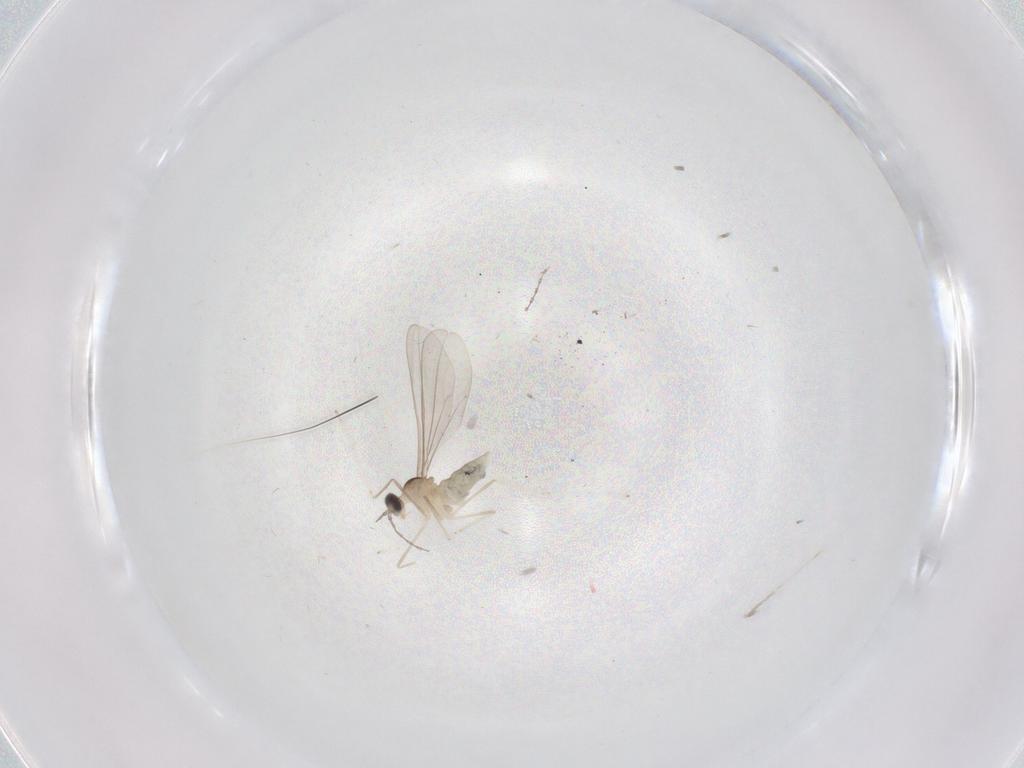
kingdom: Animalia
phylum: Arthropoda
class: Insecta
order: Diptera
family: Cecidomyiidae
